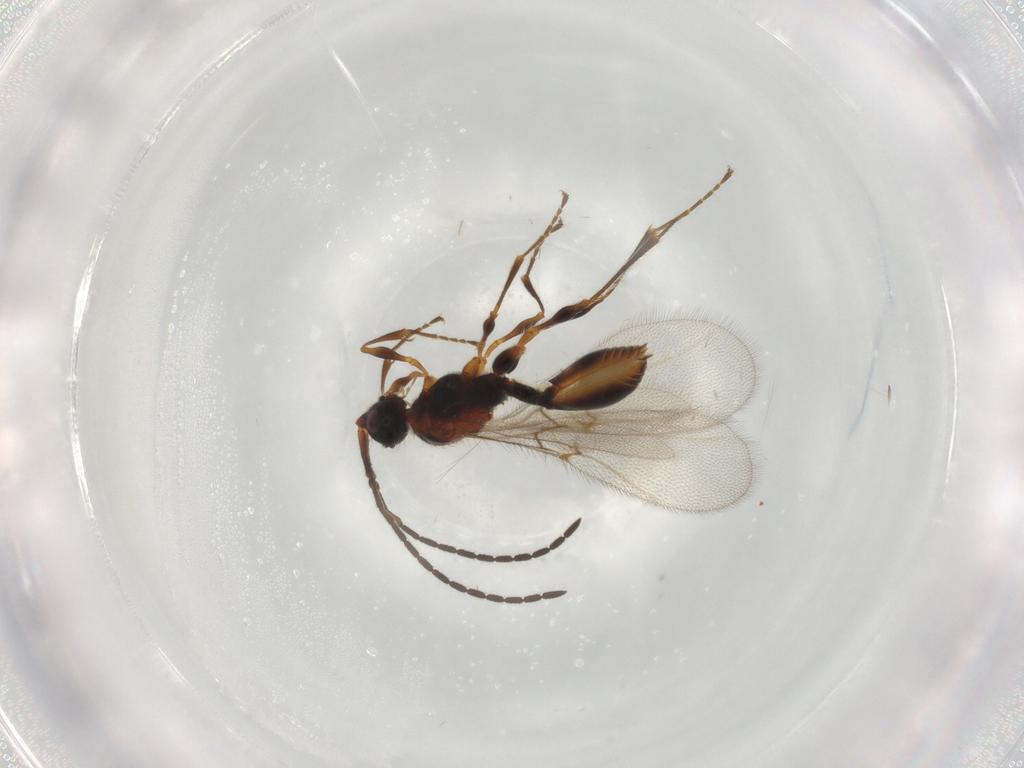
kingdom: Animalia
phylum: Arthropoda
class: Insecta
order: Hymenoptera
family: Diapriidae
